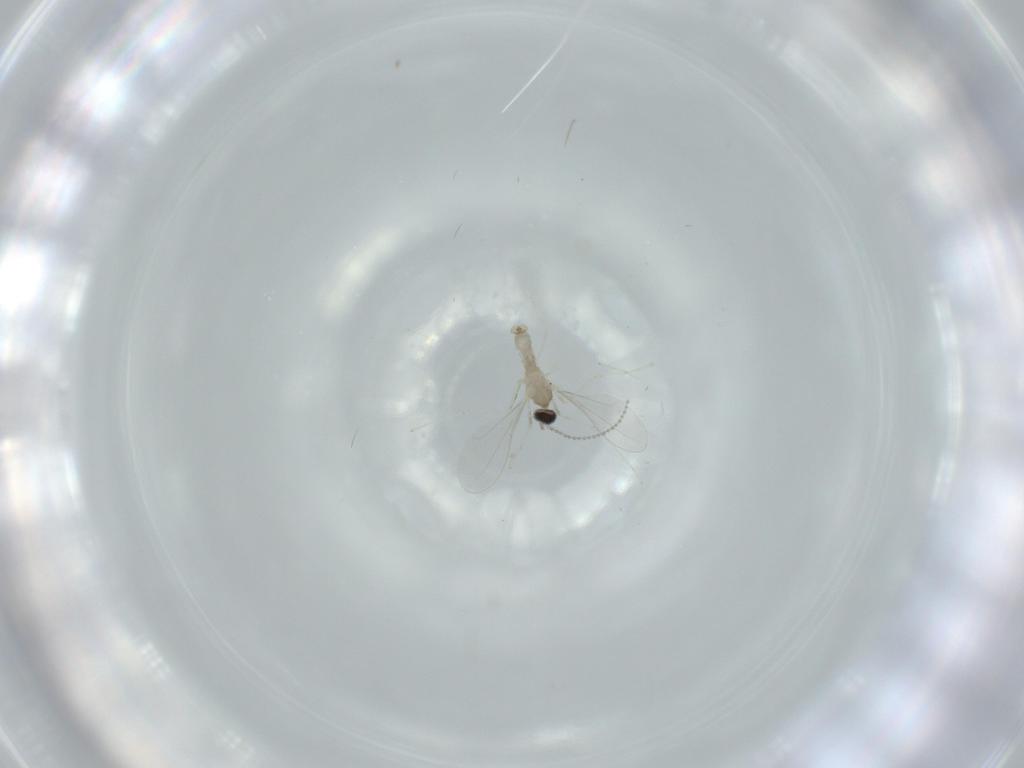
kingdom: Animalia
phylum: Arthropoda
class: Insecta
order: Diptera
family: Cecidomyiidae
